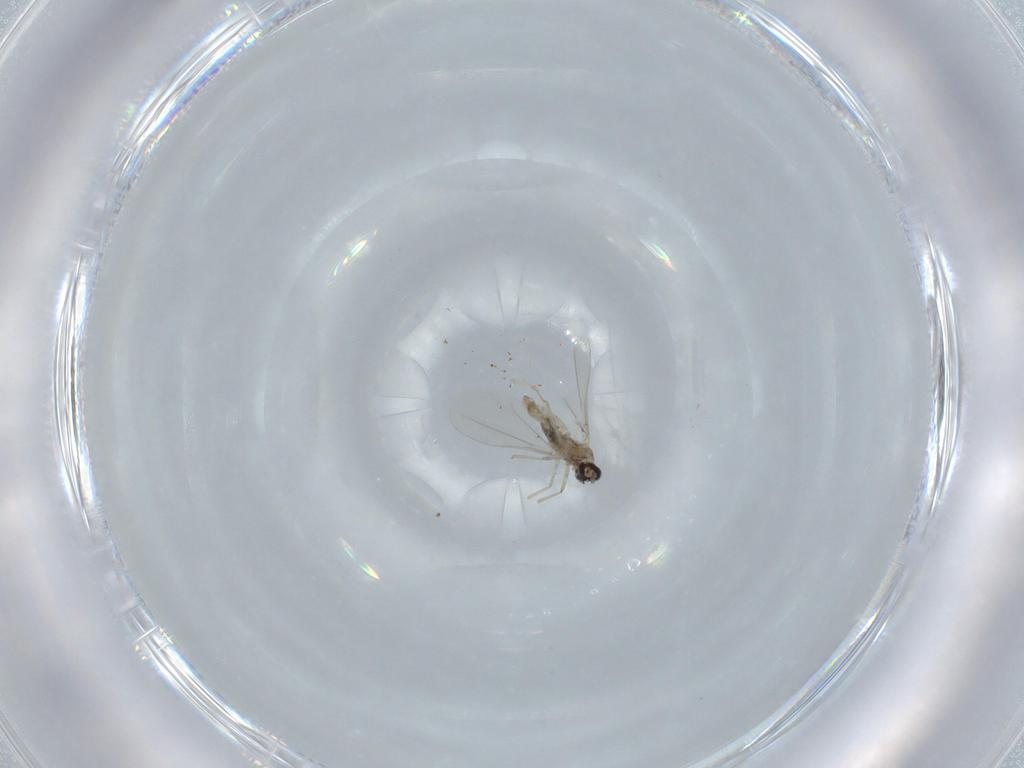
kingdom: Animalia
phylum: Arthropoda
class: Insecta
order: Diptera
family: Cecidomyiidae
